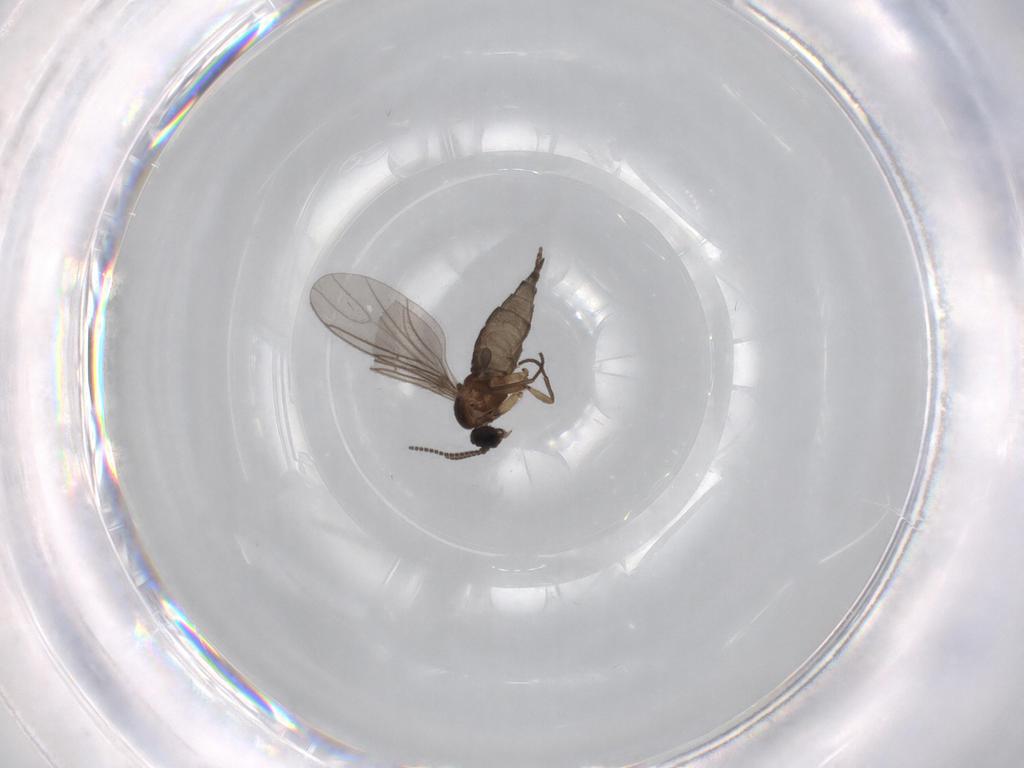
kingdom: Animalia
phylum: Arthropoda
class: Insecta
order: Diptera
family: Sciaridae
